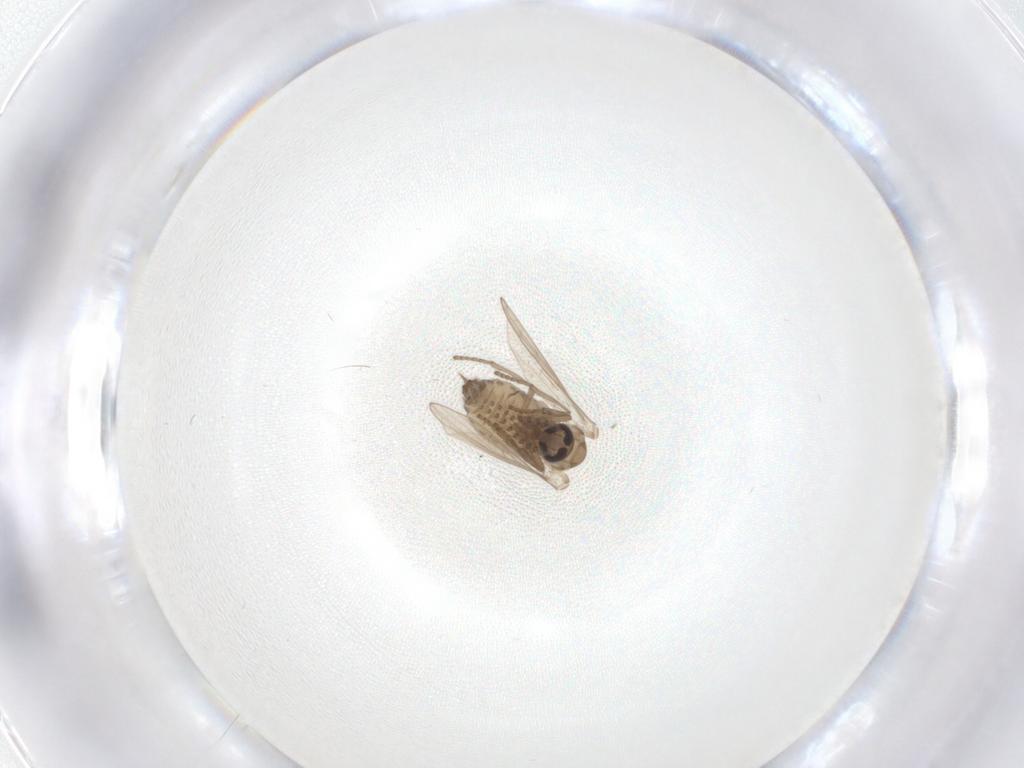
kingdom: Animalia
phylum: Arthropoda
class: Insecta
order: Diptera
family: Psychodidae
